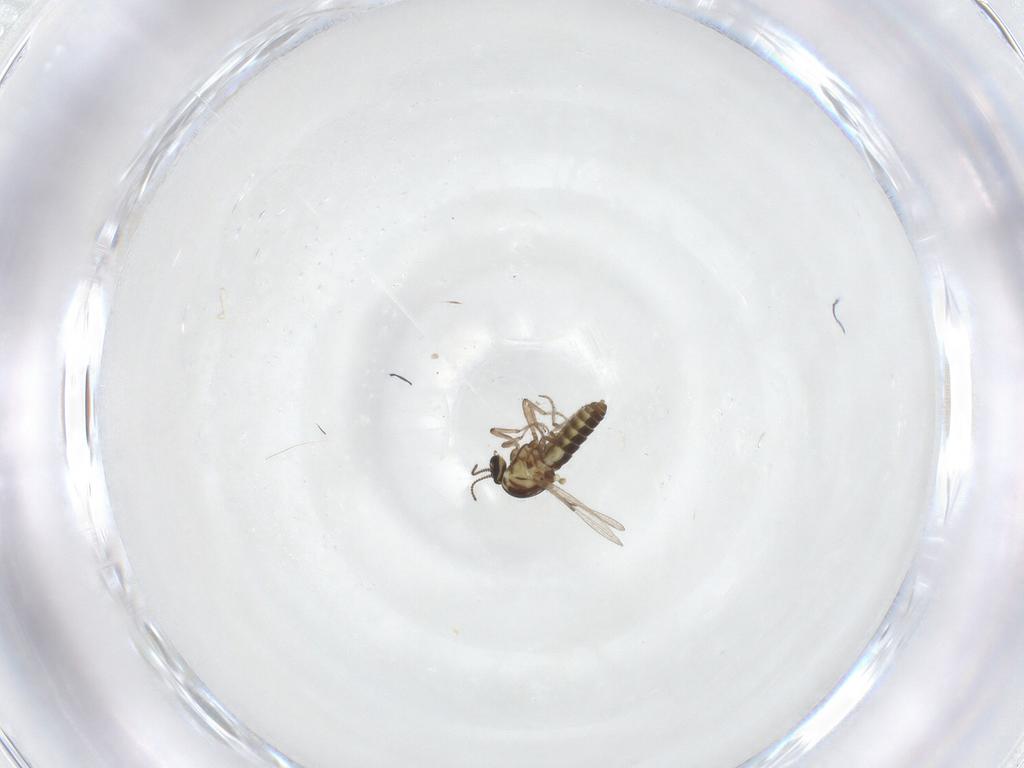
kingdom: Animalia
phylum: Arthropoda
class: Insecta
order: Diptera
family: Ceratopogonidae
